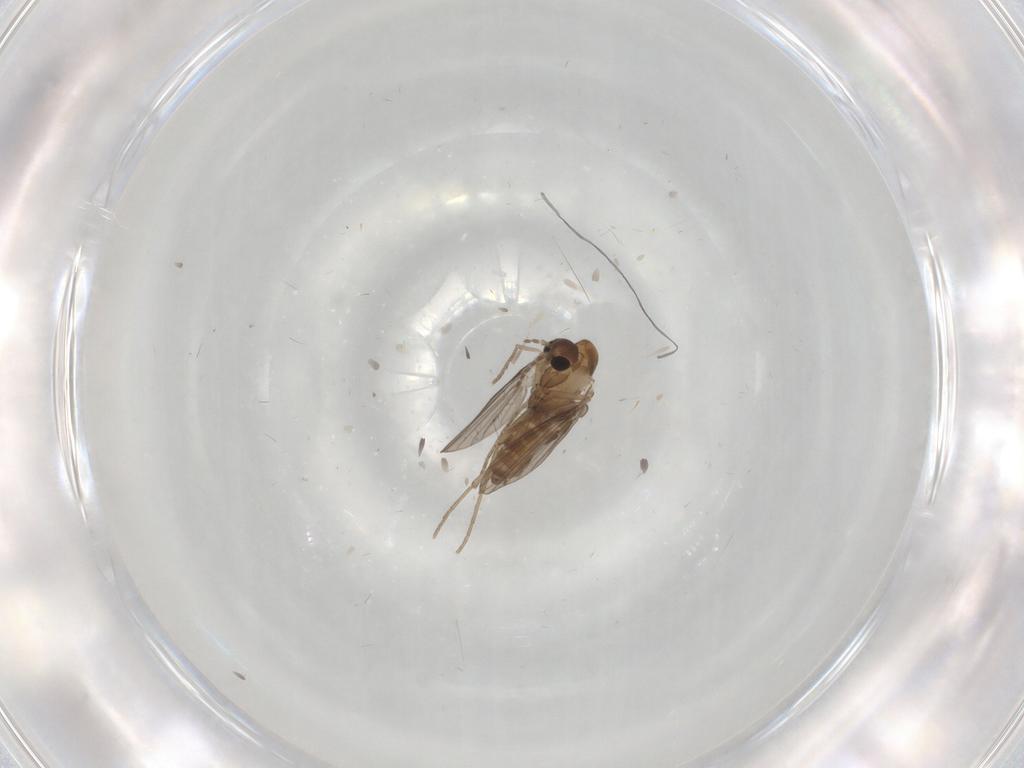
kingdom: Animalia
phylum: Arthropoda
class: Insecta
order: Diptera
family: Psychodidae
